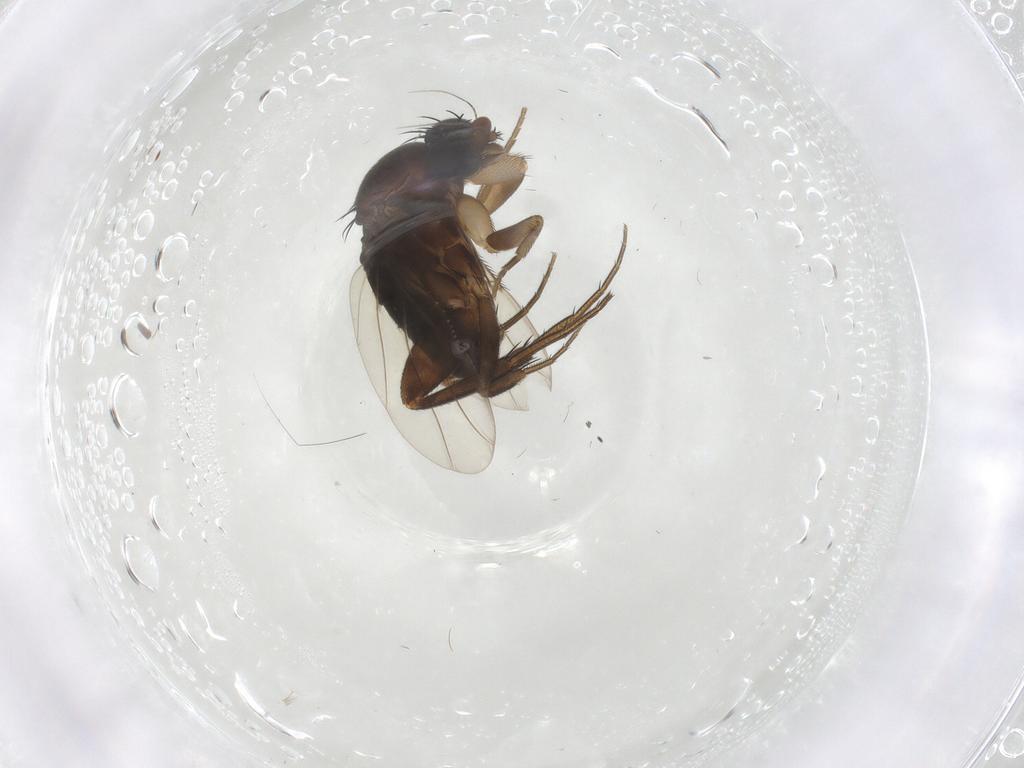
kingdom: Animalia
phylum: Arthropoda
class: Insecta
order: Diptera
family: Phoridae
